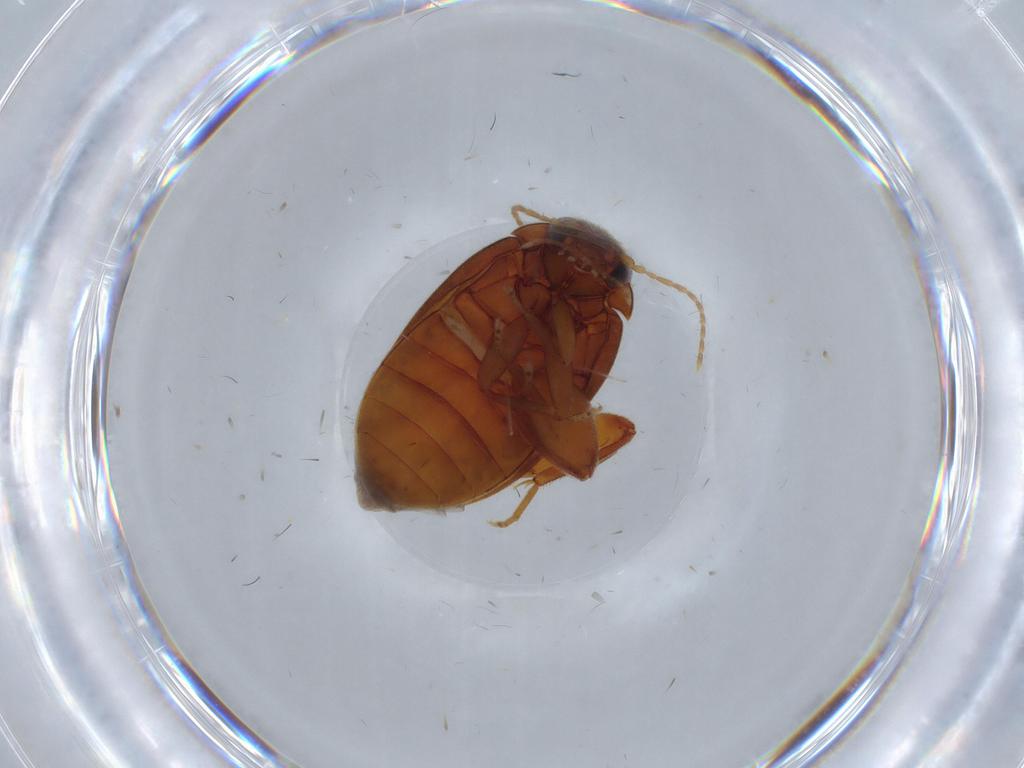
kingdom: Animalia
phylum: Arthropoda
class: Insecta
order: Coleoptera
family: Scirtidae
